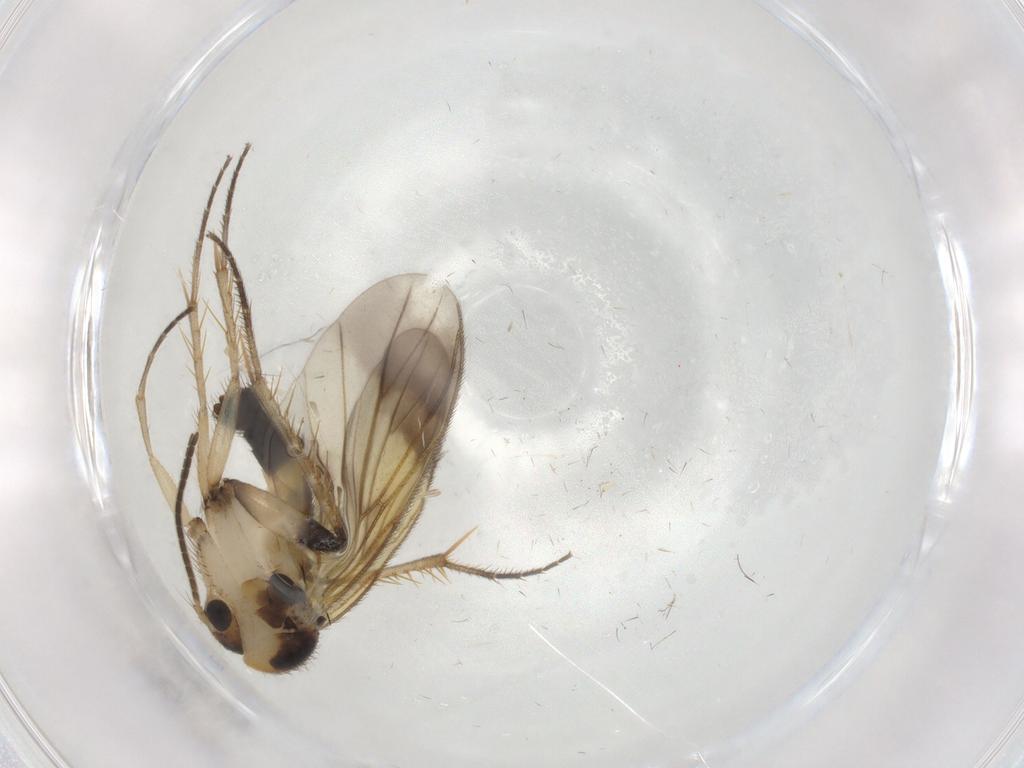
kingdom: Animalia
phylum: Arthropoda
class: Insecta
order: Diptera
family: Mycetophilidae
